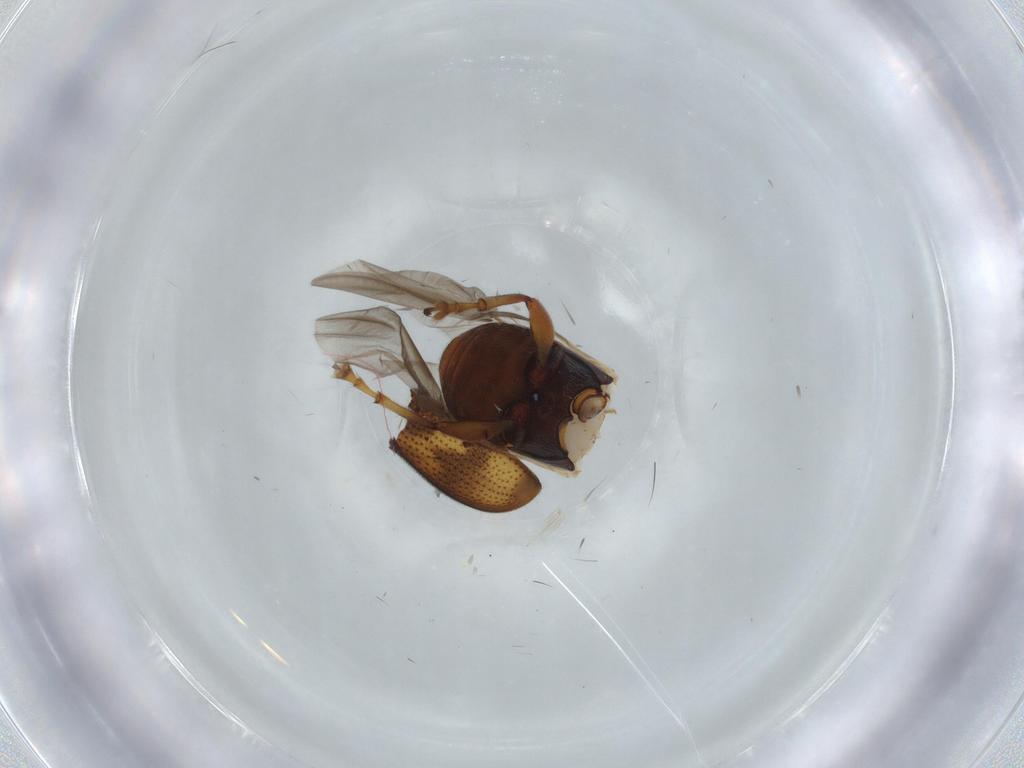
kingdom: Animalia
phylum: Arthropoda
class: Insecta
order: Coleoptera
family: Attelabidae
